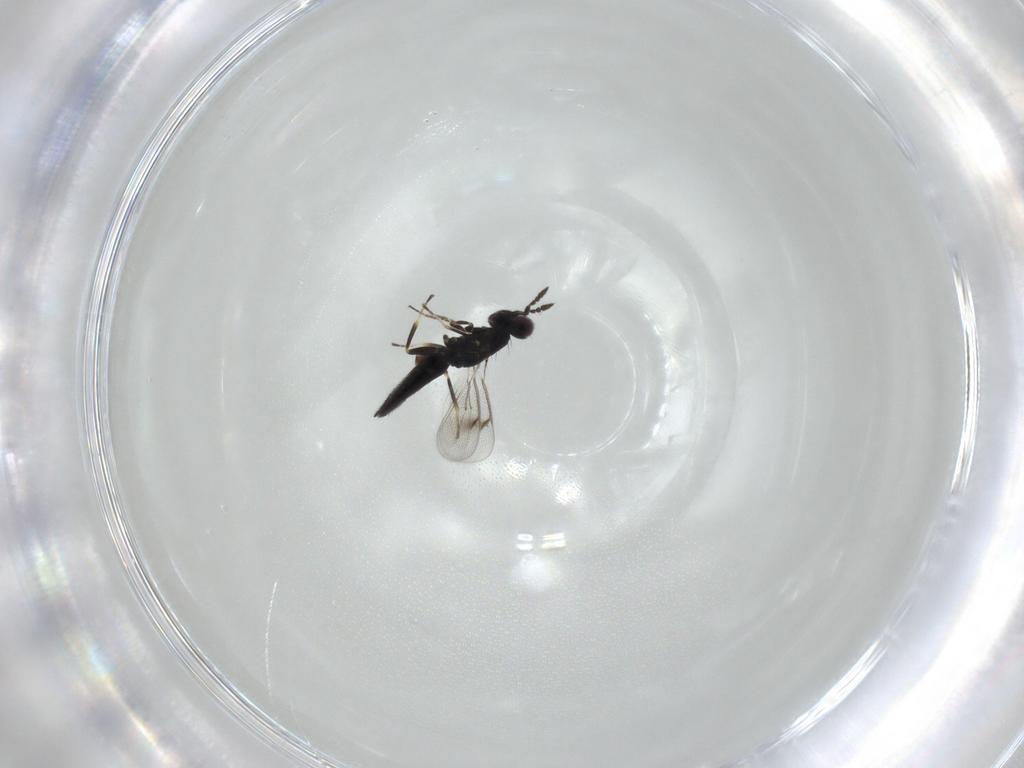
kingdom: Animalia
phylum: Arthropoda
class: Insecta
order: Hymenoptera
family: Eulophidae
